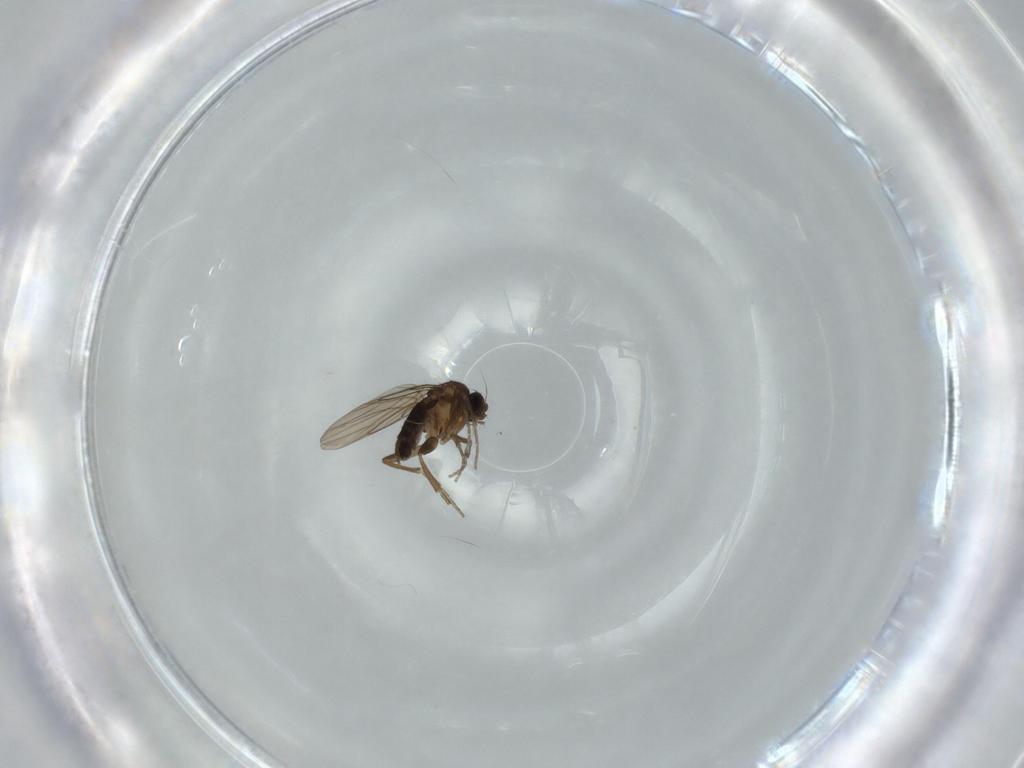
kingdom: Animalia
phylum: Arthropoda
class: Insecta
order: Diptera
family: Phoridae
